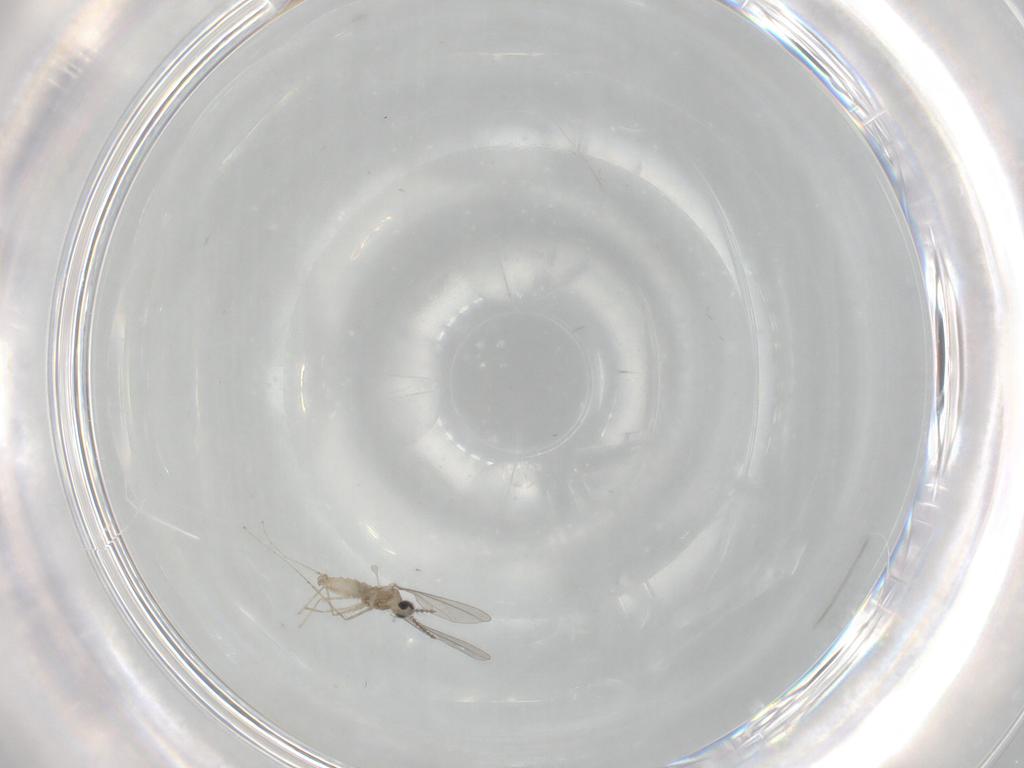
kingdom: Animalia
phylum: Arthropoda
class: Insecta
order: Diptera
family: Cecidomyiidae
